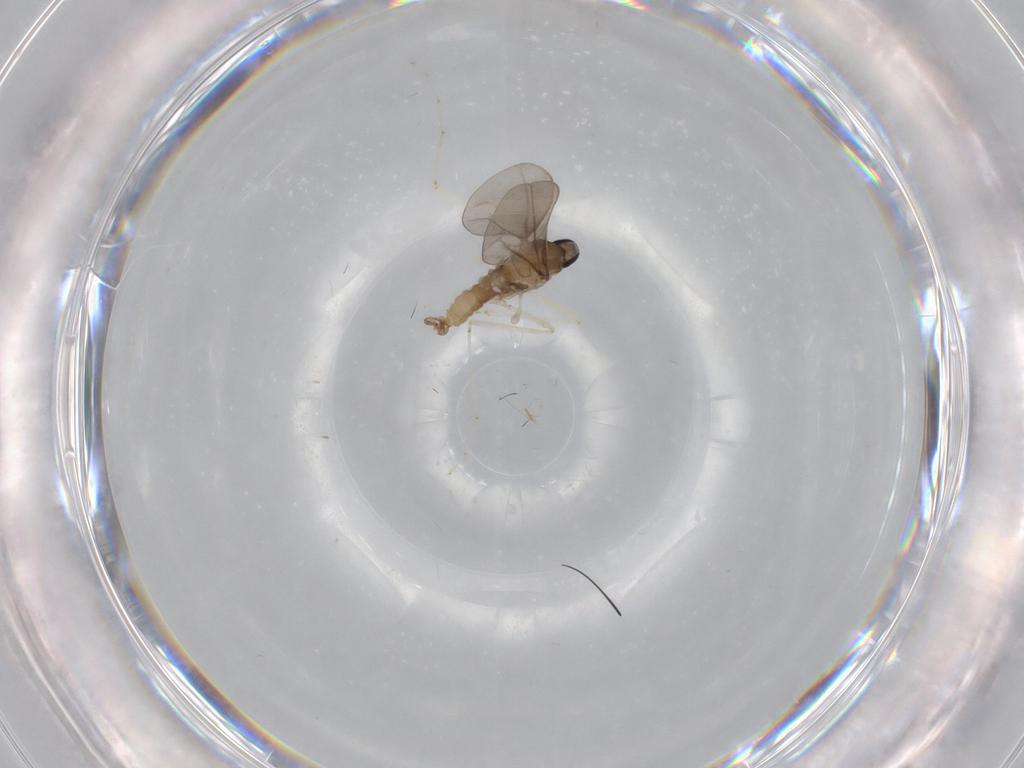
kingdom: Animalia
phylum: Arthropoda
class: Insecta
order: Diptera
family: Cecidomyiidae
